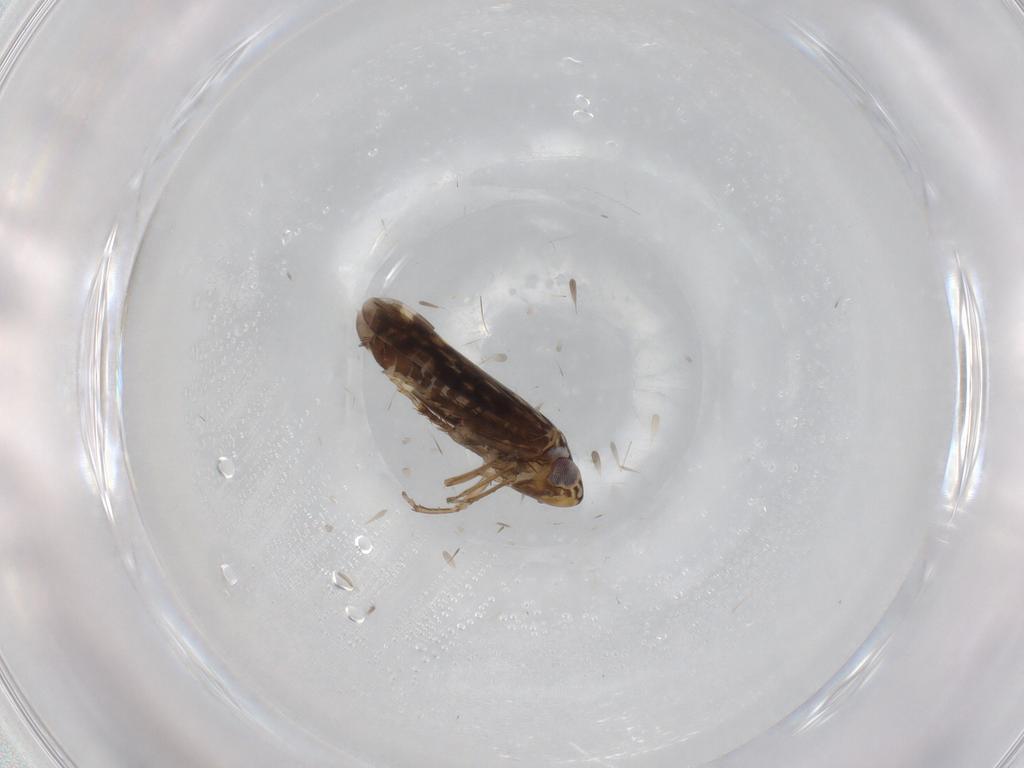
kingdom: Animalia
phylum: Arthropoda
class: Insecta
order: Hemiptera
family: Cicadellidae
